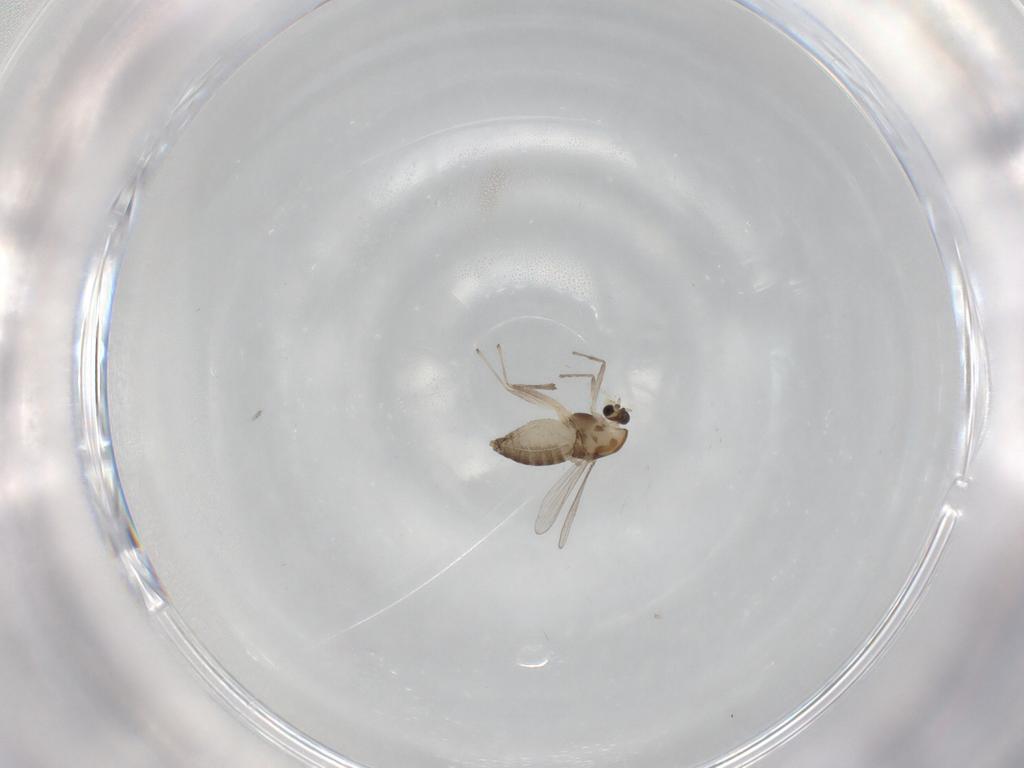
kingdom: Animalia
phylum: Arthropoda
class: Insecta
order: Diptera
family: Chironomidae
